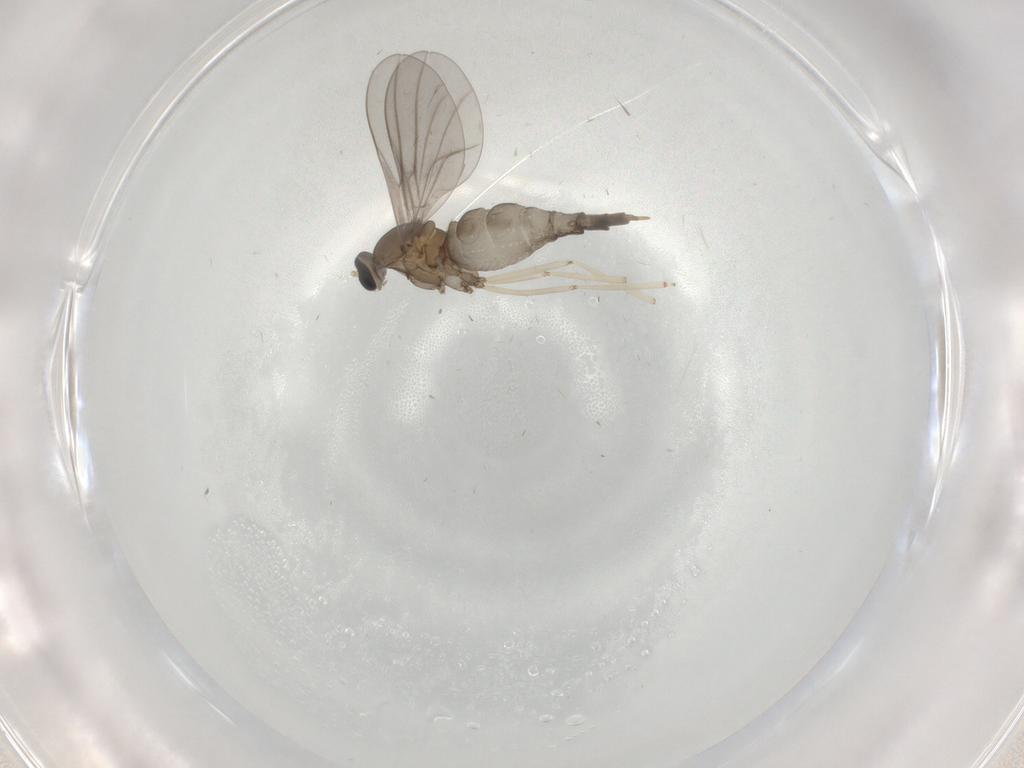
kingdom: Animalia
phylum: Arthropoda
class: Insecta
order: Diptera
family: Cecidomyiidae
